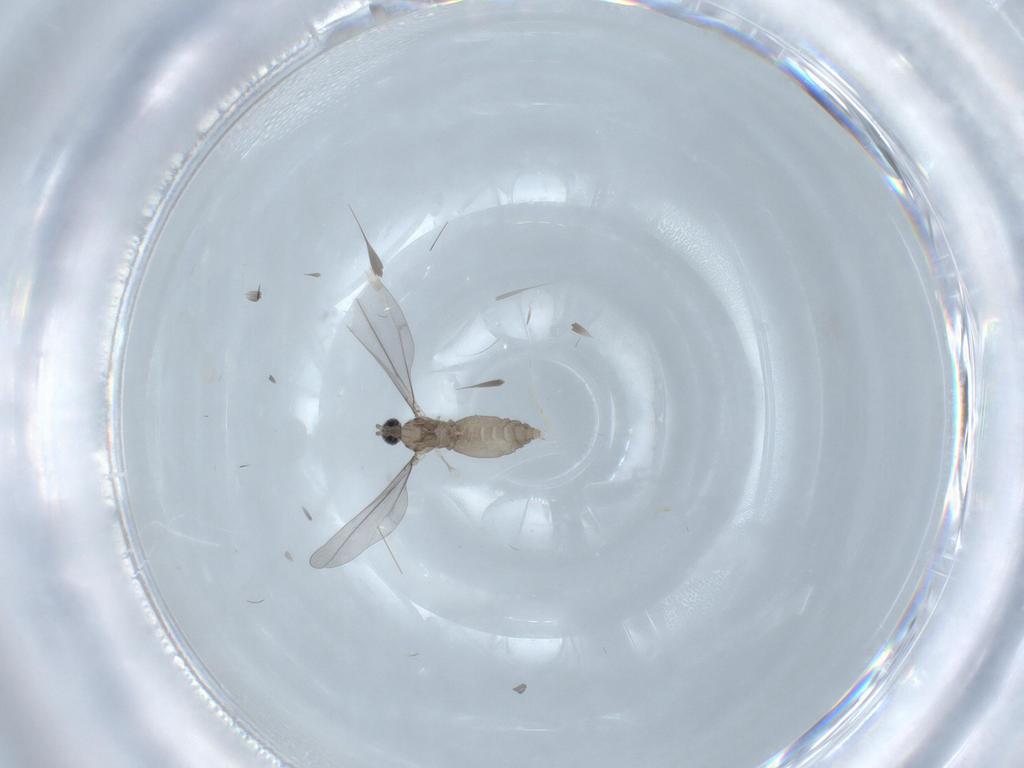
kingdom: Animalia
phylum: Arthropoda
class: Insecta
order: Diptera
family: Cecidomyiidae
